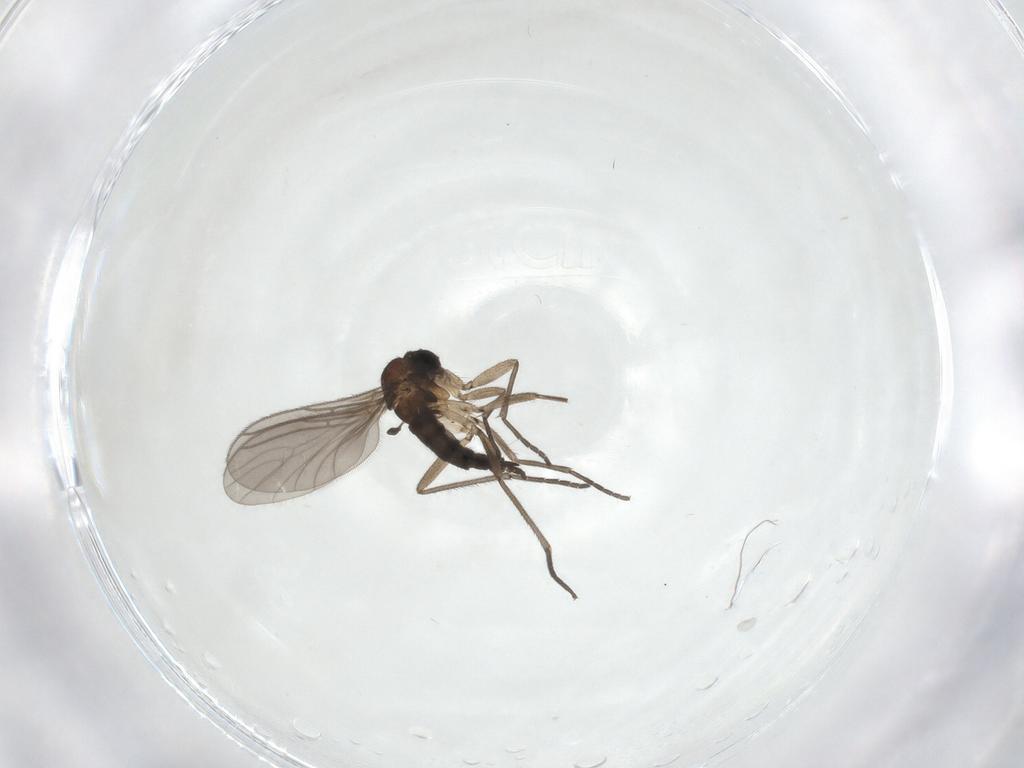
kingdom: Animalia
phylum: Arthropoda
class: Insecta
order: Diptera
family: Sciaridae
